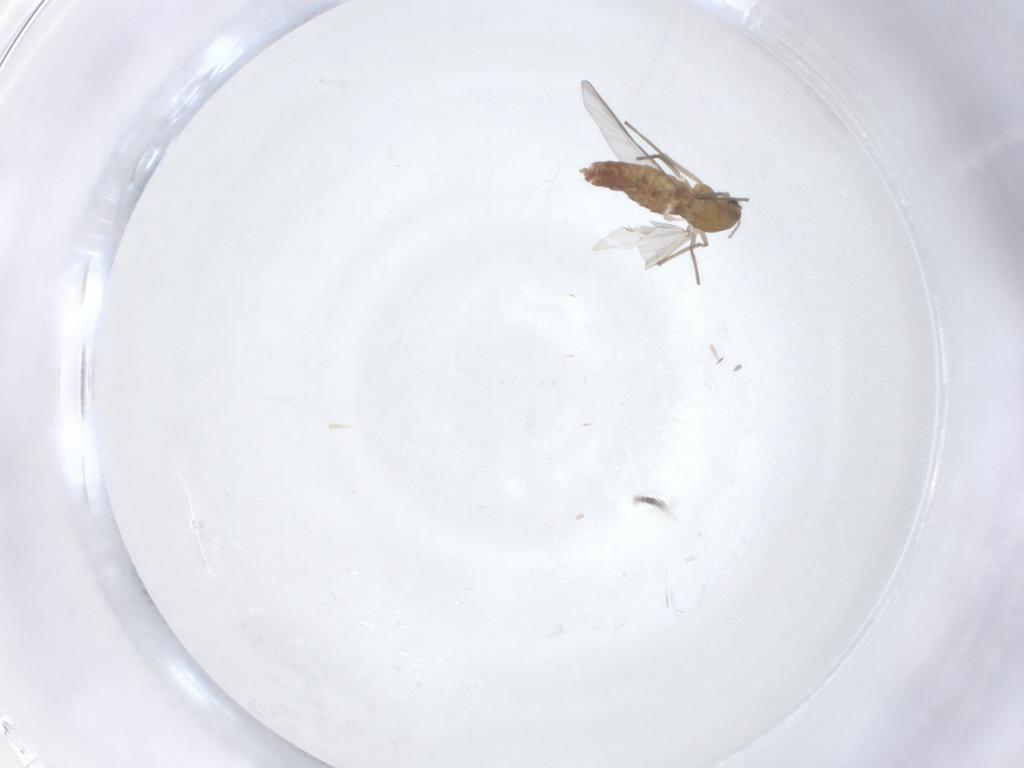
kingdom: Animalia
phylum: Arthropoda
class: Insecta
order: Diptera
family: Chironomidae
